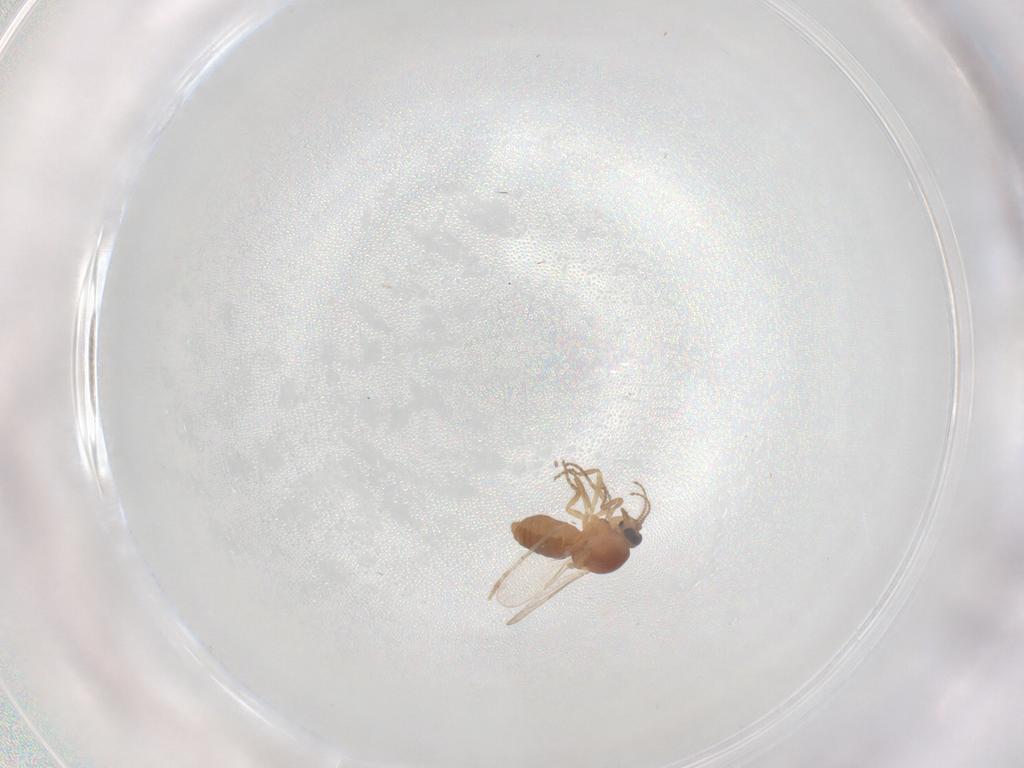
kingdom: Animalia
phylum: Arthropoda
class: Insecta
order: Diptera
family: Ceratopogonidae
